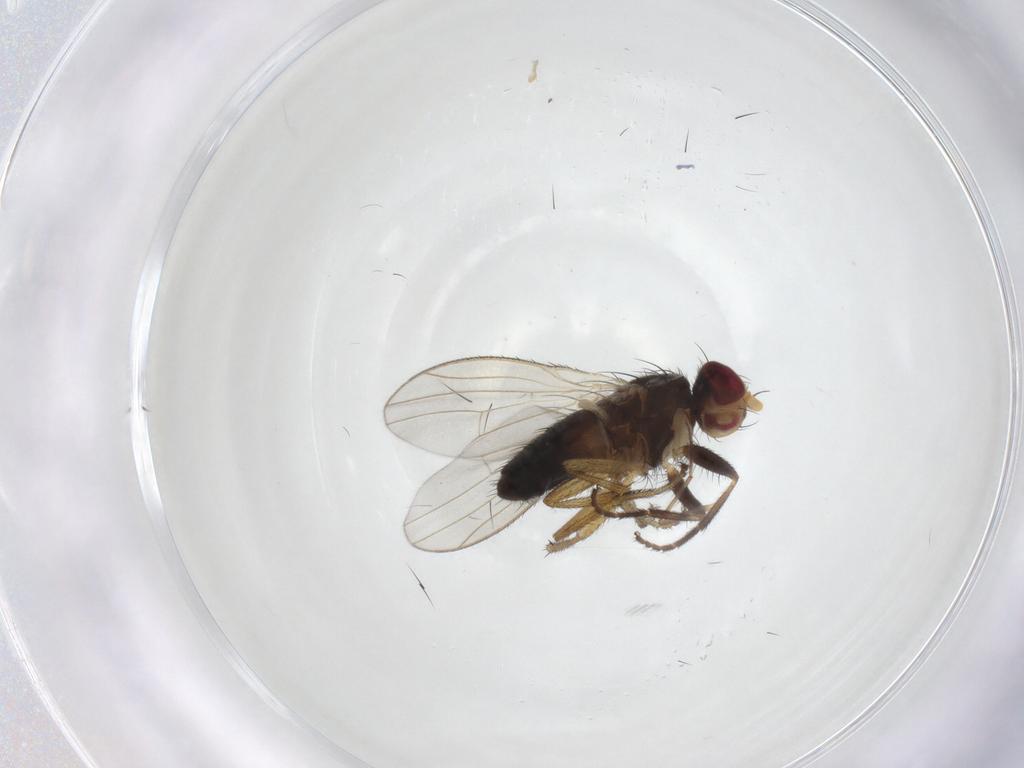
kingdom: Animalia
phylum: Arthropoda
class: Insecta
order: Diptera
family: Heleomyzidae
